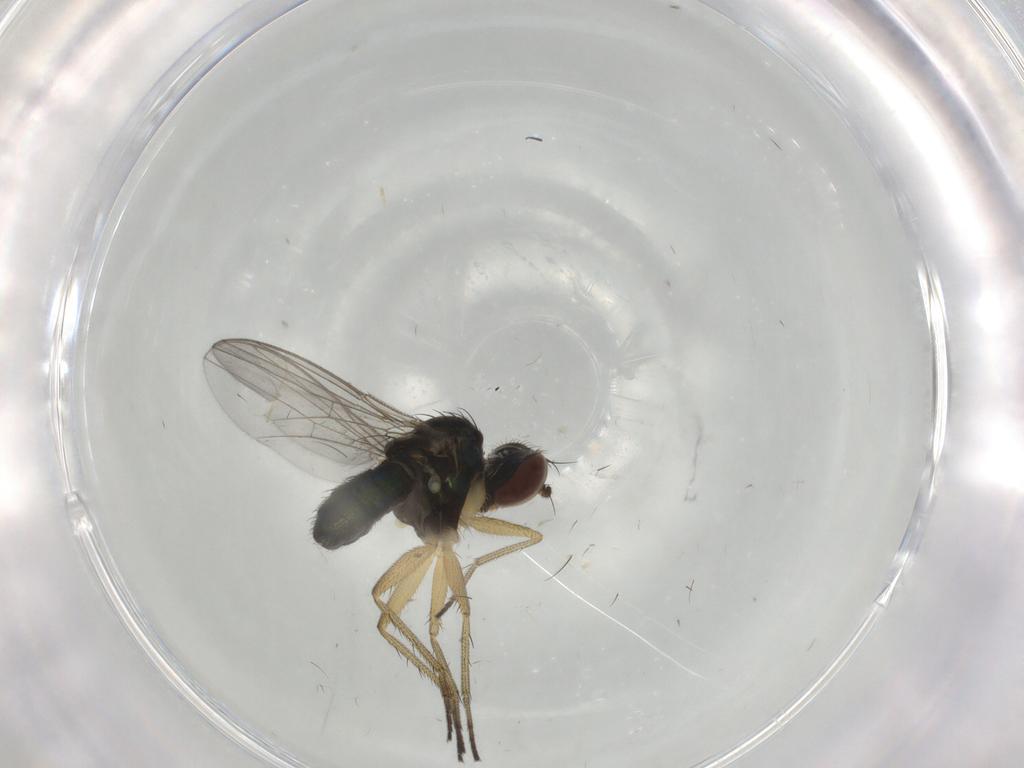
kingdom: Animalia
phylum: Arthropoda
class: Insecta
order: Diptera
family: Dolichopodidae
